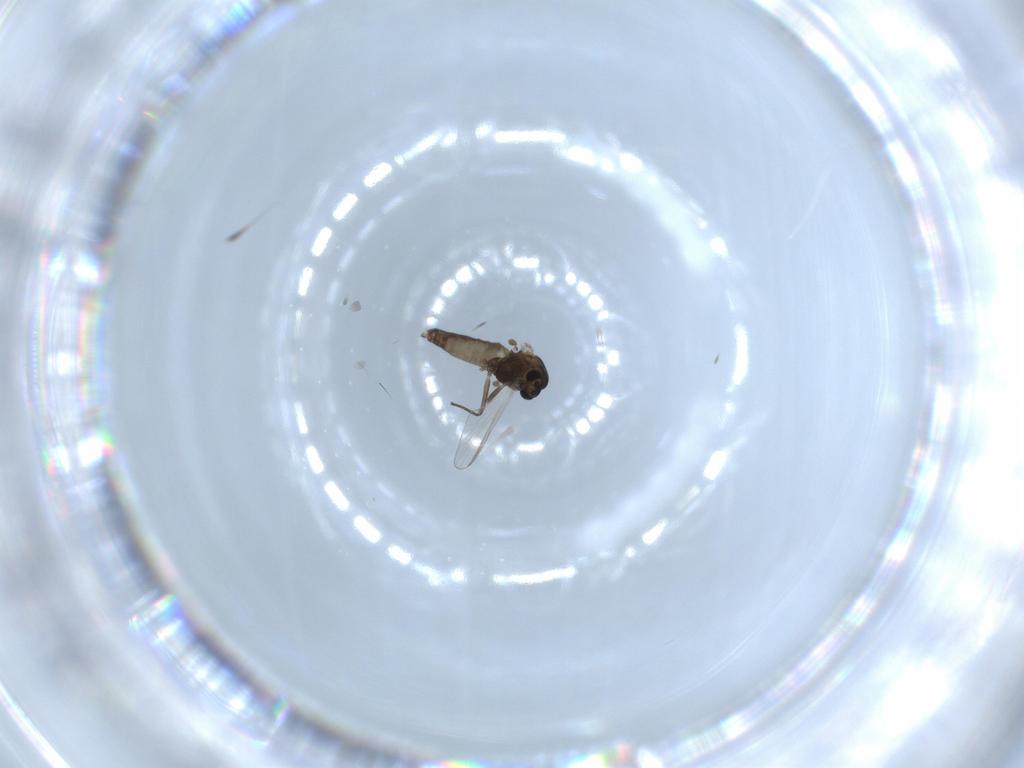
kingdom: Animalia
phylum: Arthropoda
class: Insecta
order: Diptera
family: Chironomidae
